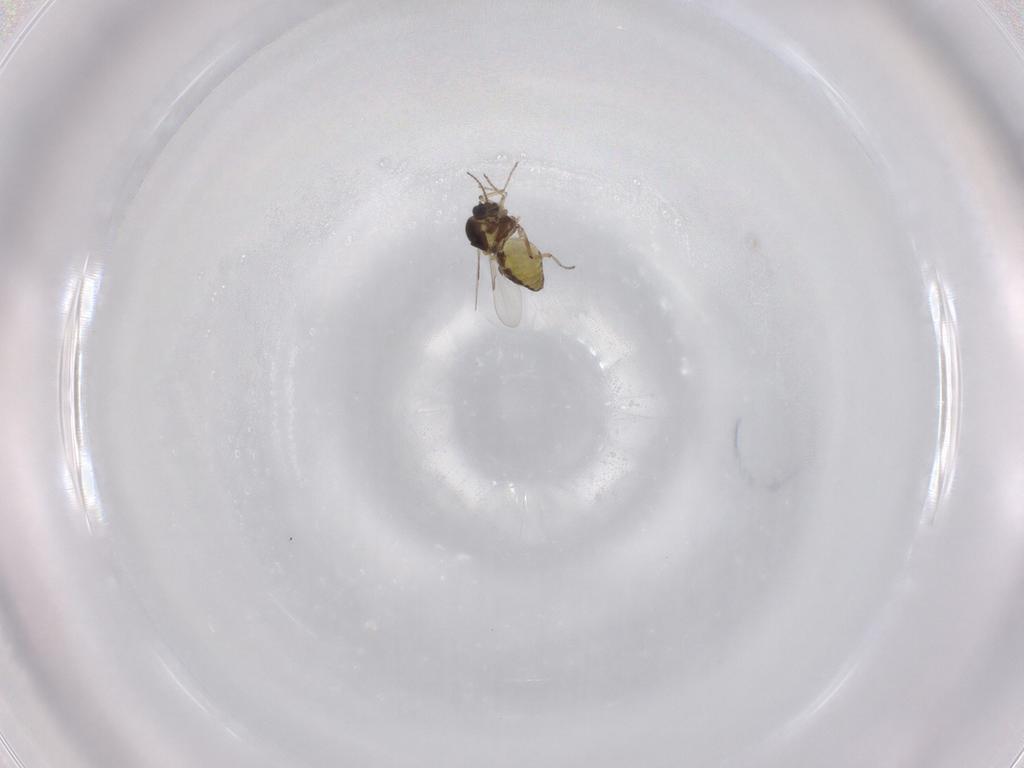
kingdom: Animalia
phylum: Arthropoda
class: Insecta
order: Diptera
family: Ceratopogonidae
